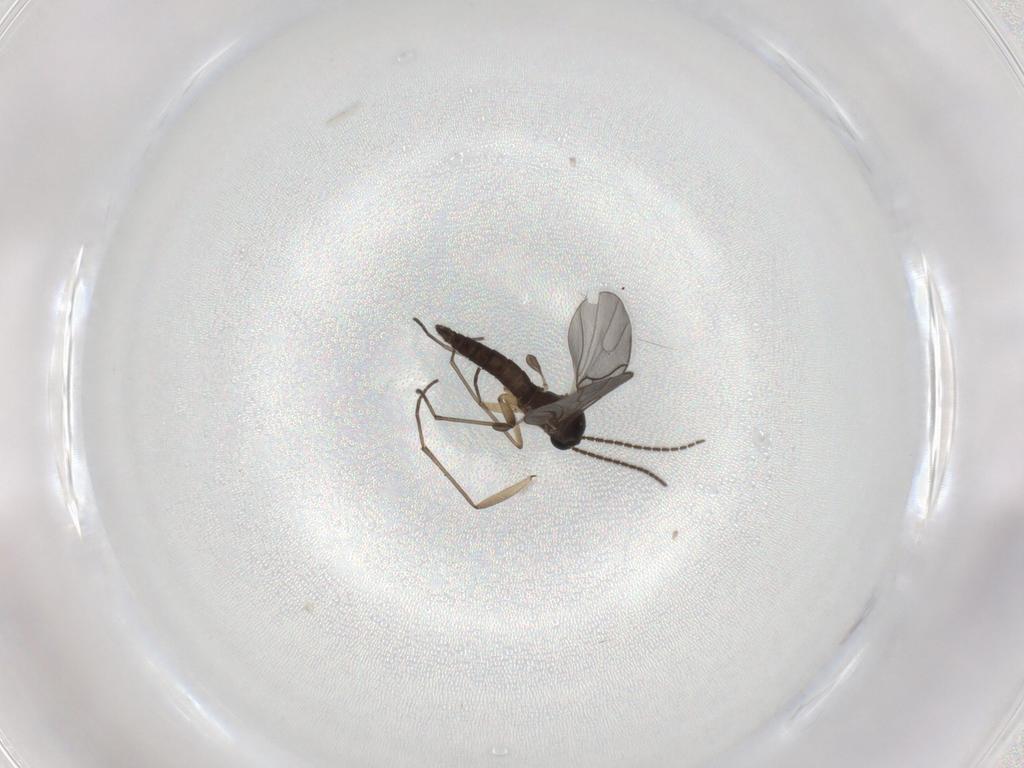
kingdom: Animalia
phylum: Arthropoda
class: Insecta
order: Diptera
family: Sciaridae
